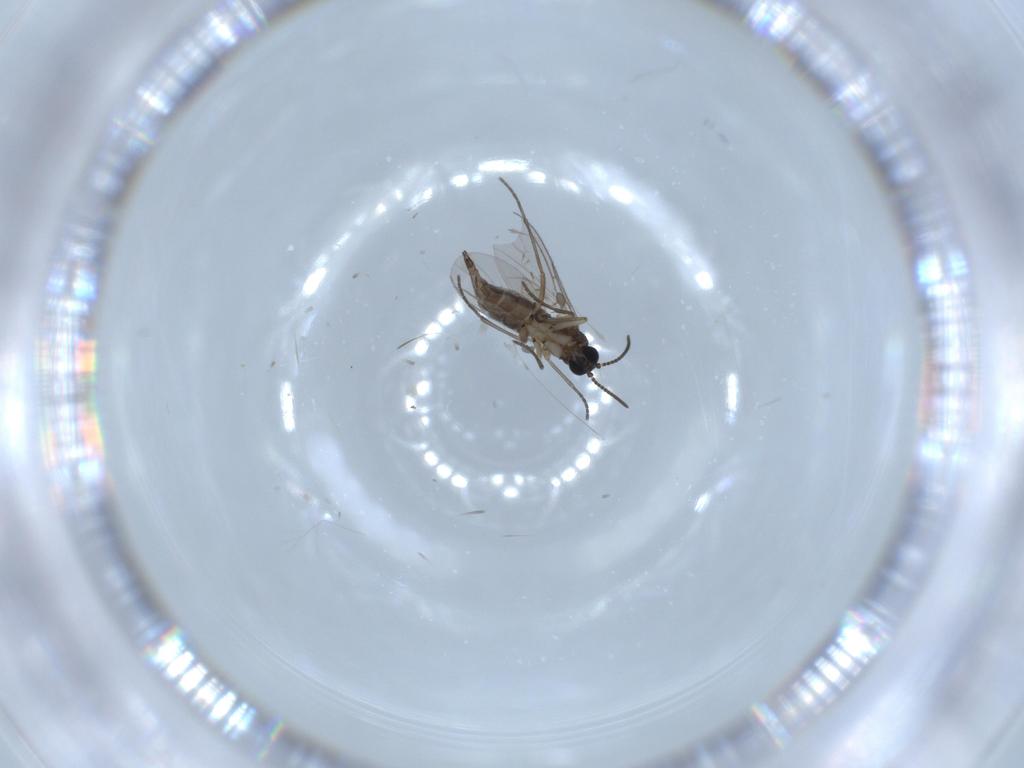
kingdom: Animalia
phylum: Arthropoda
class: Insecta
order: Diptera
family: Sciaridae
